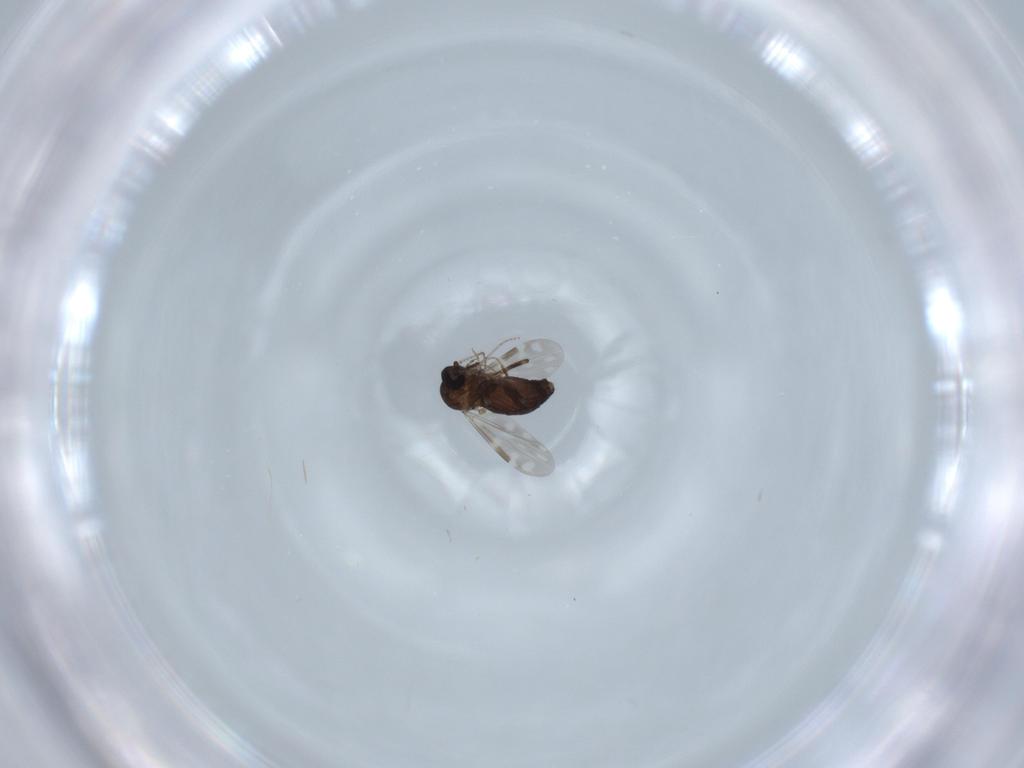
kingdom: Animalia
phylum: Arthropoda
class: Insecta
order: Diptera
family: Ceratopogonidae
